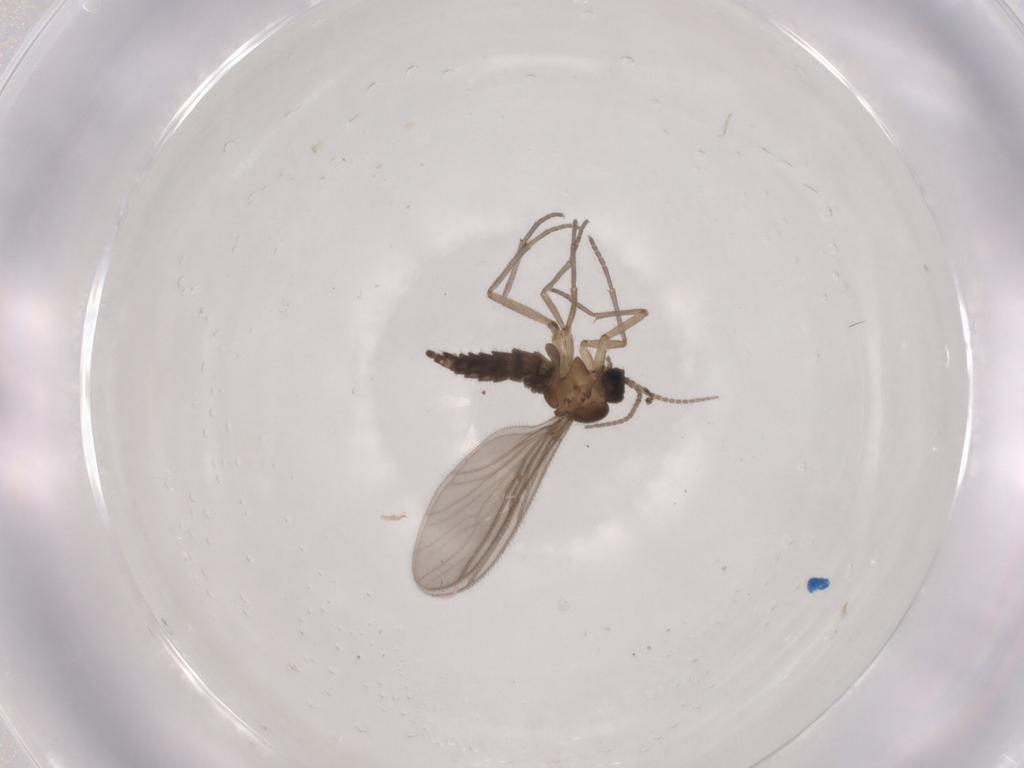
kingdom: Animalia
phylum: Arthropoda
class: Insecta
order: Diptera
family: Sciaridae
